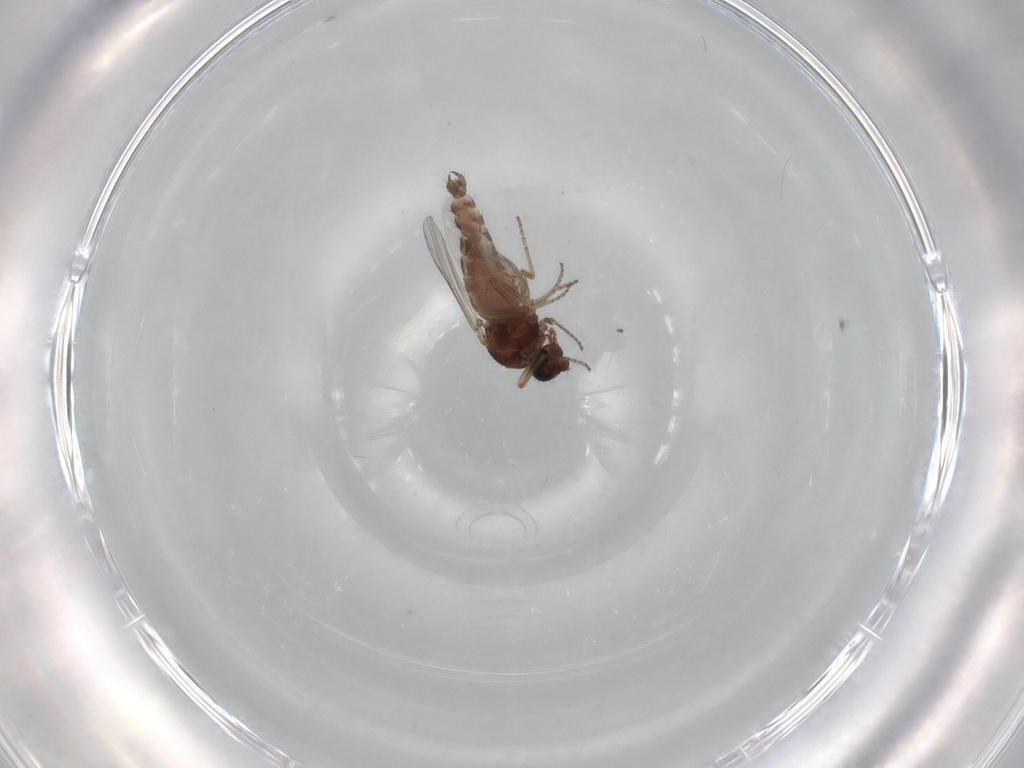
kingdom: Animalia
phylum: Arthropoda
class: Insecta
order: Diptera
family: Ceratopogonidae
